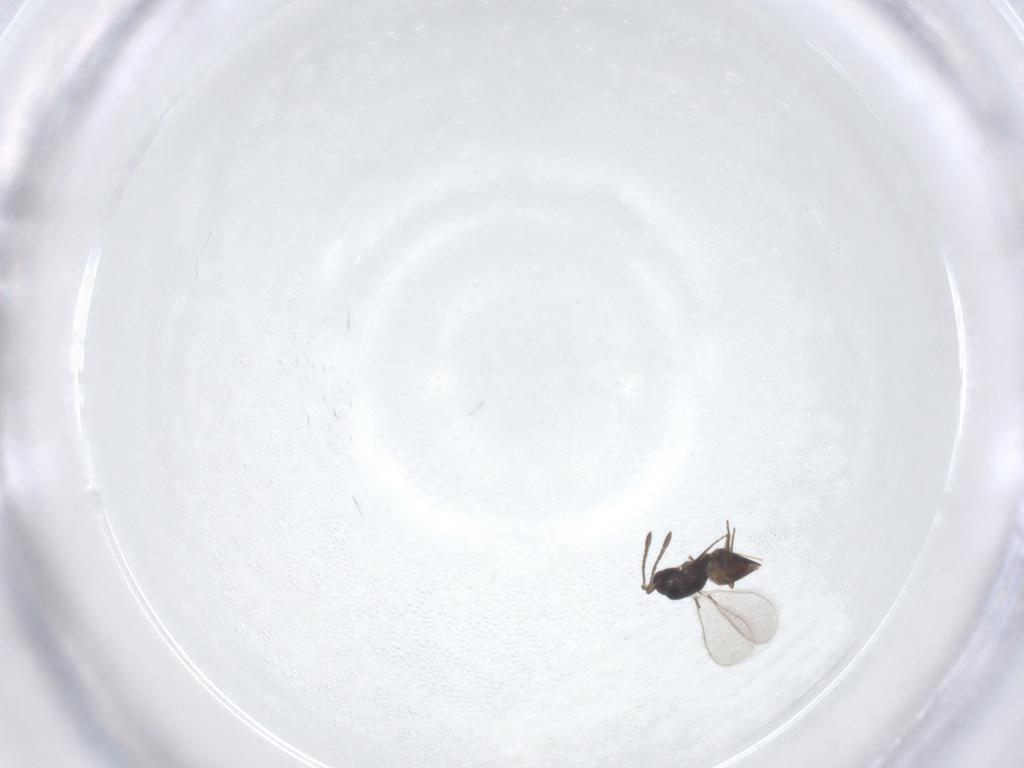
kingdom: Animalia
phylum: Arthropoda
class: Insecta
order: Hymenoptera
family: Mymaridae
